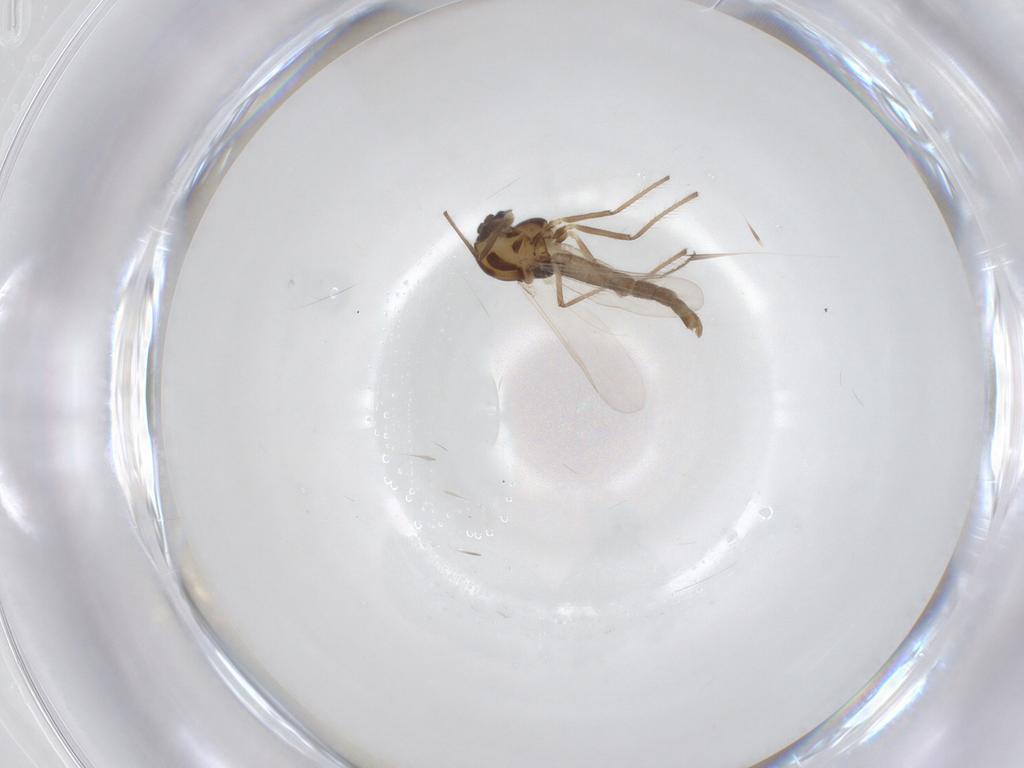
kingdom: Animalia
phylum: Arthropoda
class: Insecta
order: Diptera
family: Chironomidae
